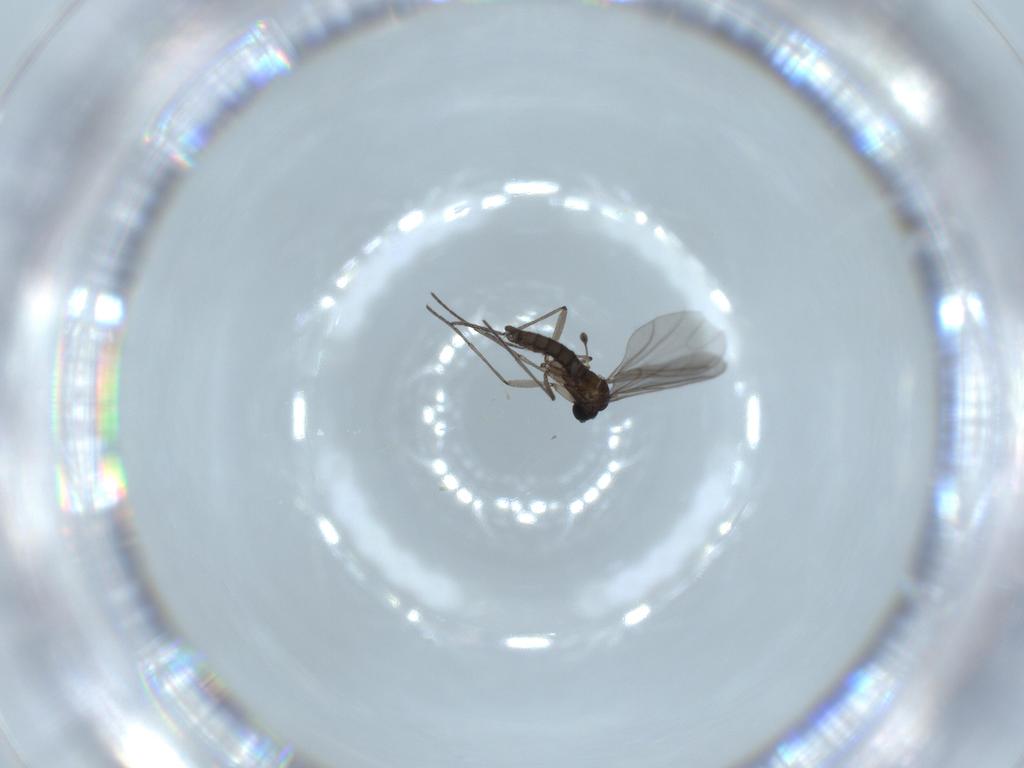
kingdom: Animalia
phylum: Arthropoda
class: Insecta
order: Diptera
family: Sciaridae
